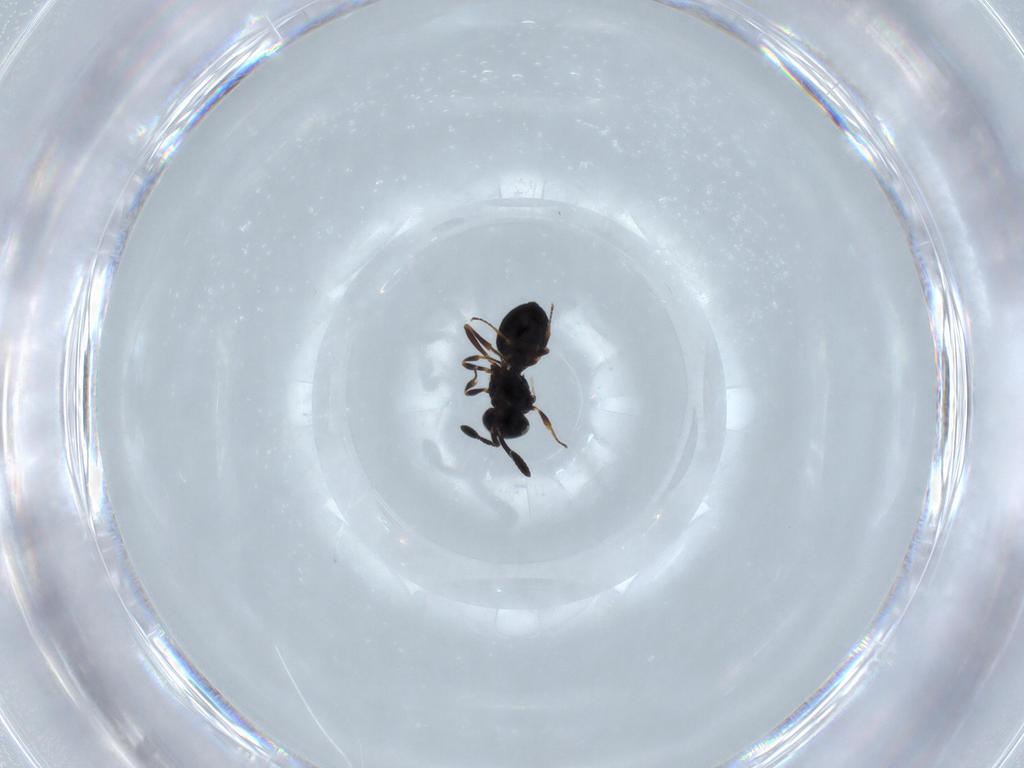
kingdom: Animalia
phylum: Arthropoda
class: Insecta
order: Hymenoptera
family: Scelionidae
